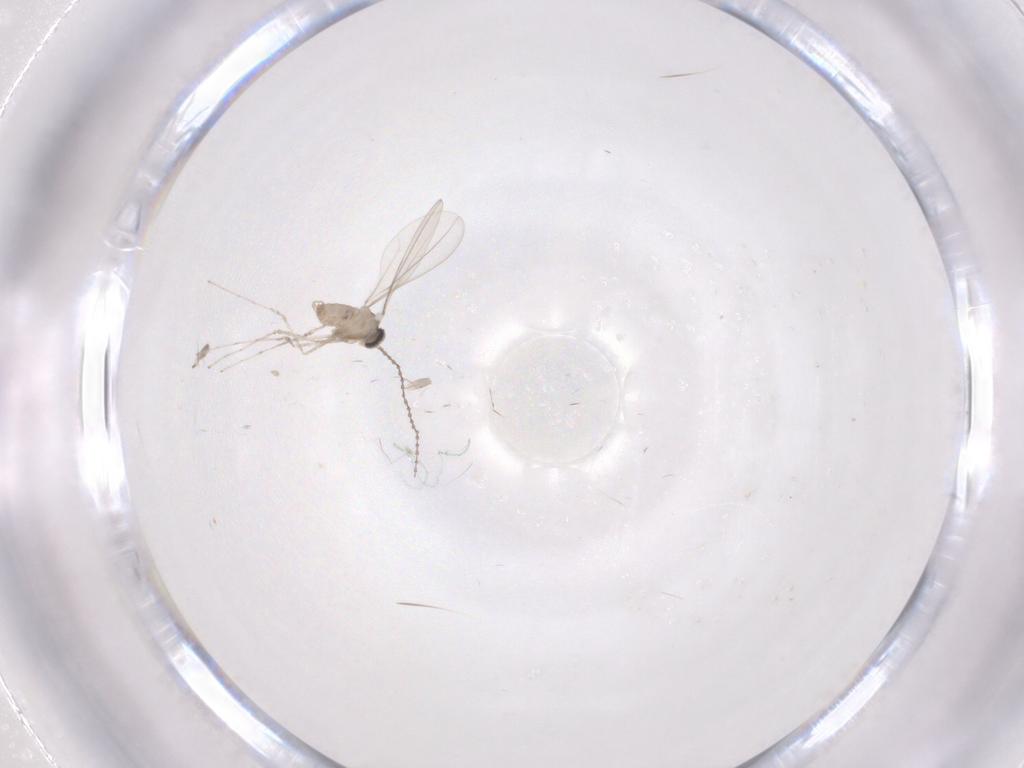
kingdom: Animalia
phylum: Arthropoda
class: Insecta
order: Diptera
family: Cecidomyiidae
